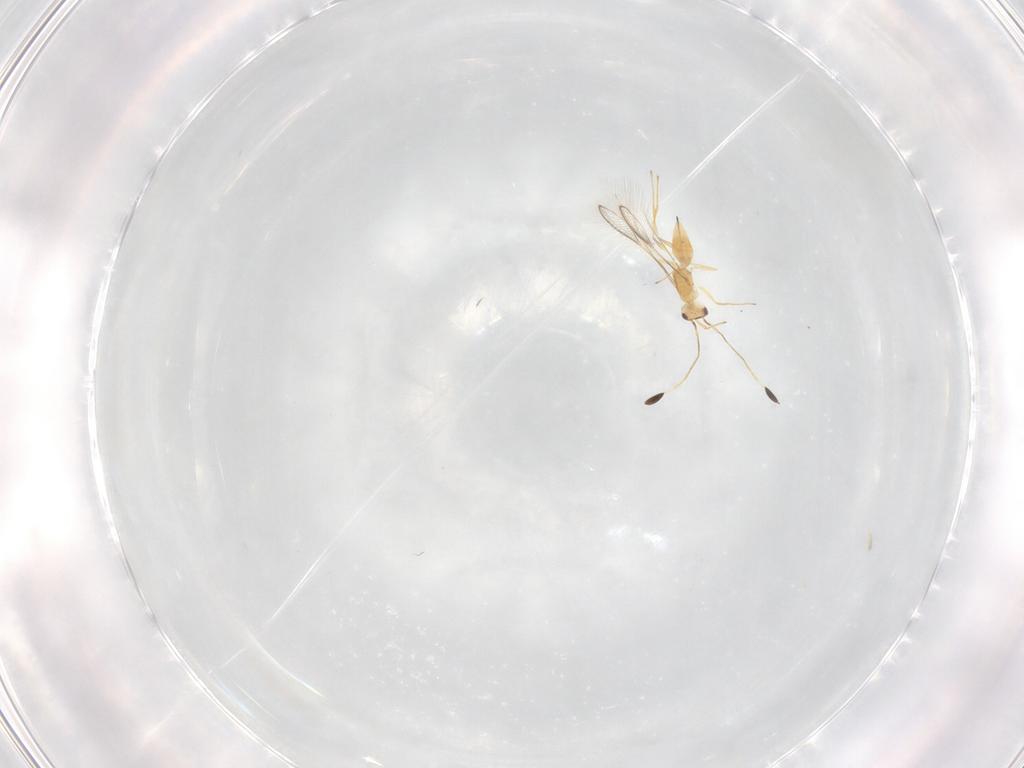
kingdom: Animalia
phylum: Arthropoda
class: Insecta
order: Hymenoptera
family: Mymaridae
